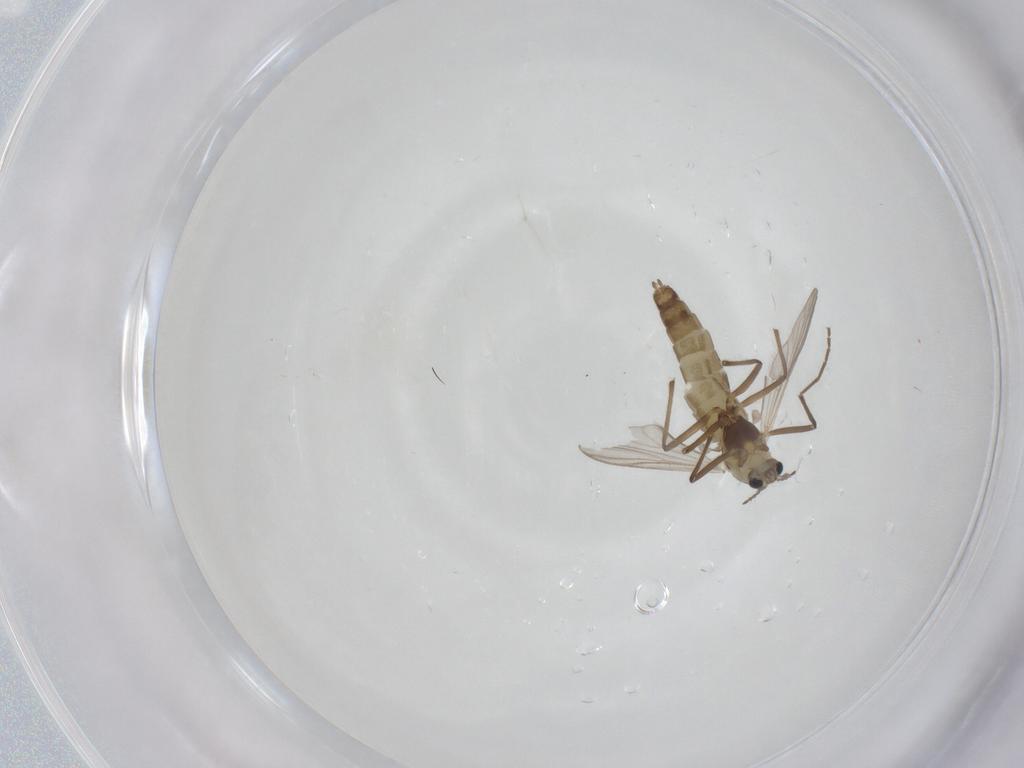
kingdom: Animalia
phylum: Arthropoda
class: Insecta
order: Diptera
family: Chironomidae
